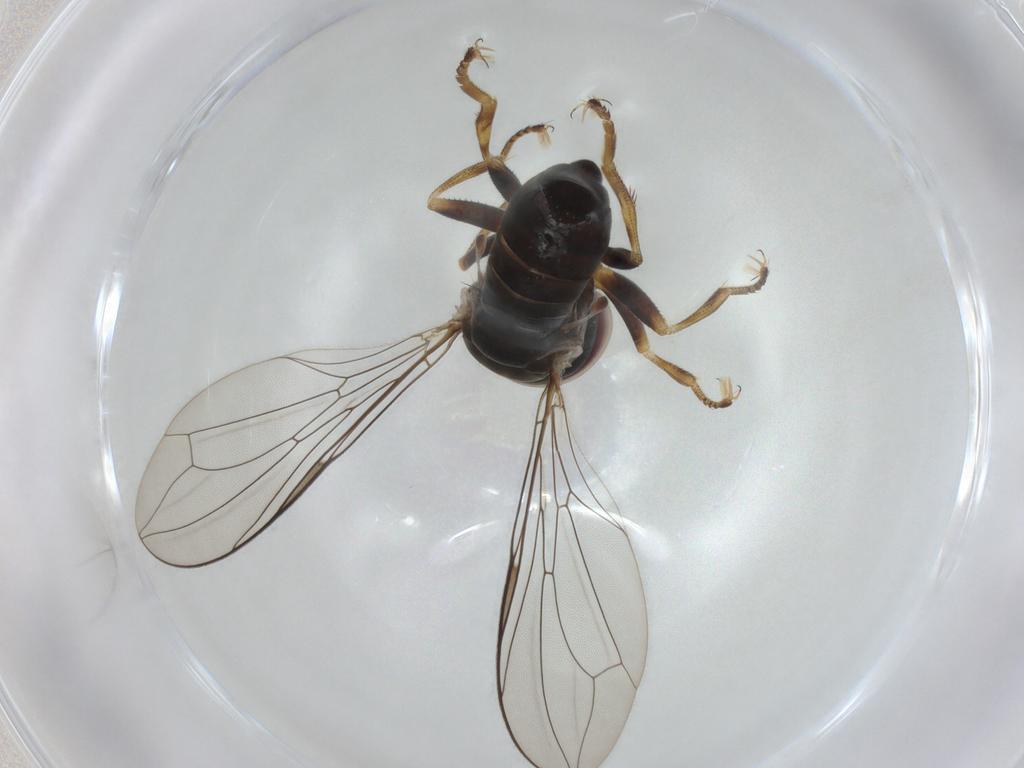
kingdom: Animalia
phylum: Arthropoda
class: Insecta
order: Diptera
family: Pipunculidae
